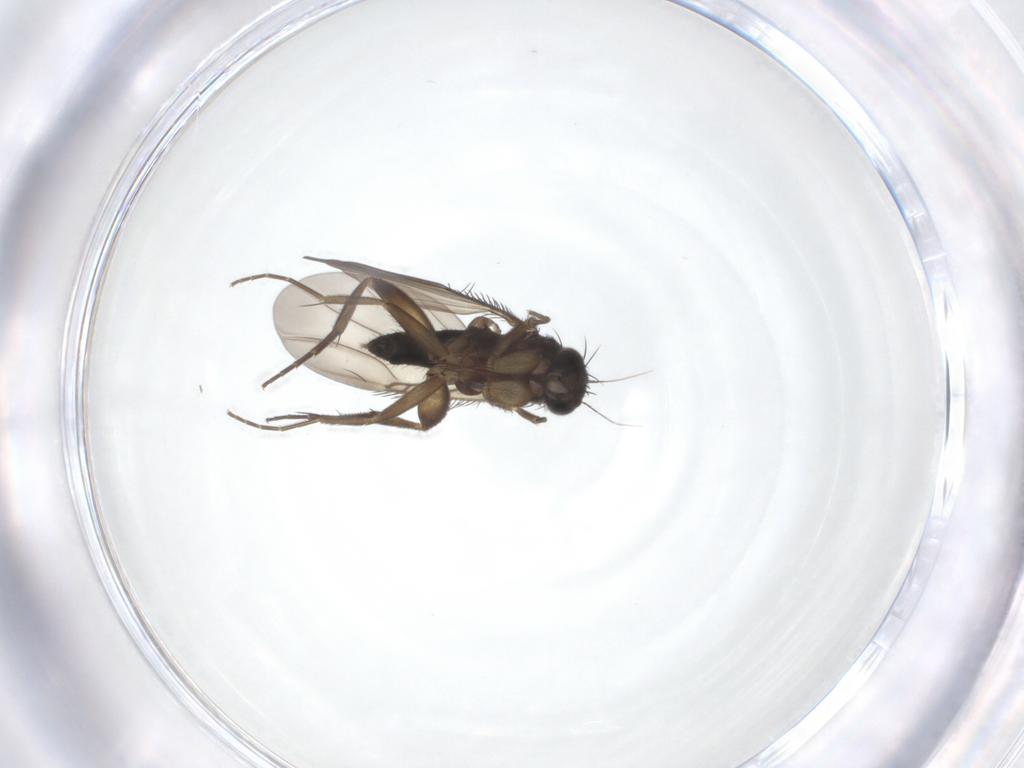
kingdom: Animalia
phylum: Arthropoda
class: Insecta
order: Diptera
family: Phoridae
